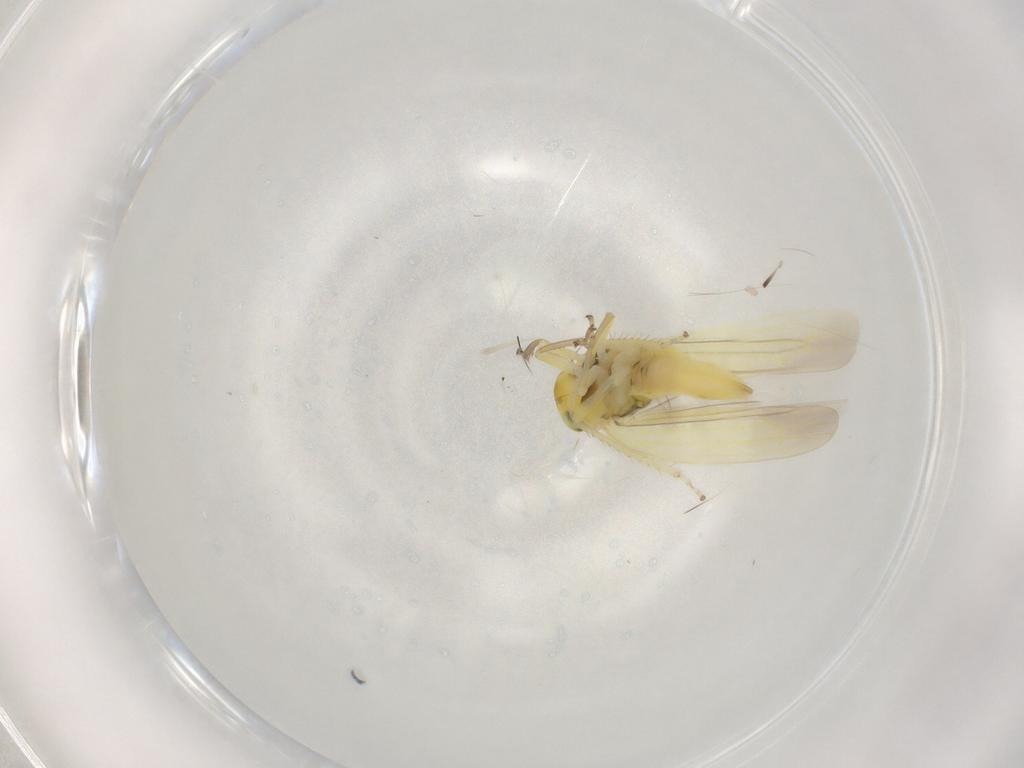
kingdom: Animalia
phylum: Arthropoda
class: Insecta
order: Hemiptera
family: Cicadellidae
